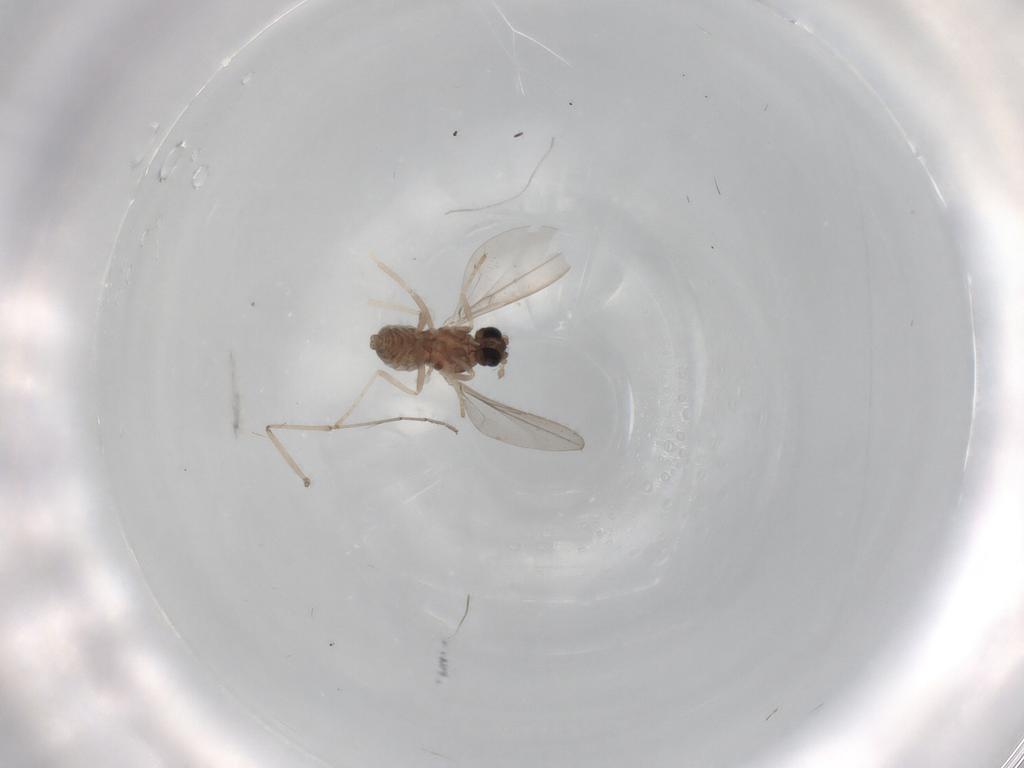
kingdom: Animalia
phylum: Arthropoda
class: Insecta
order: Diptera
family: Cecidomyiidae
